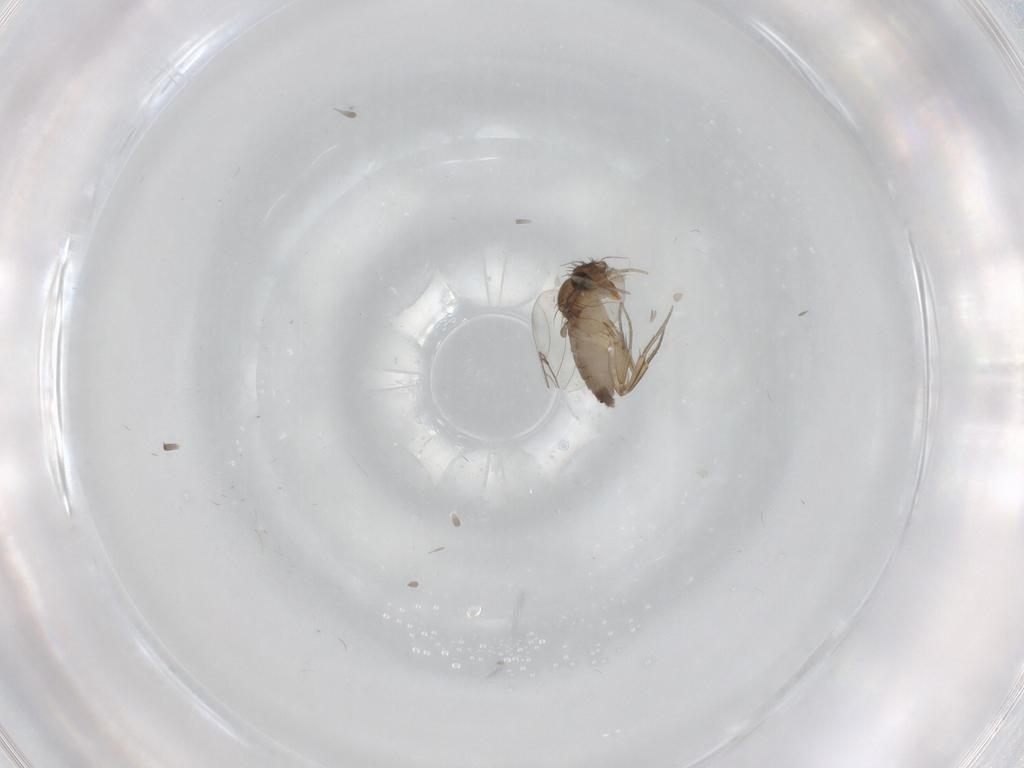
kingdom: Animalia
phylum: Arthropoda
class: Insecta
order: Diptera
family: Phoridae
